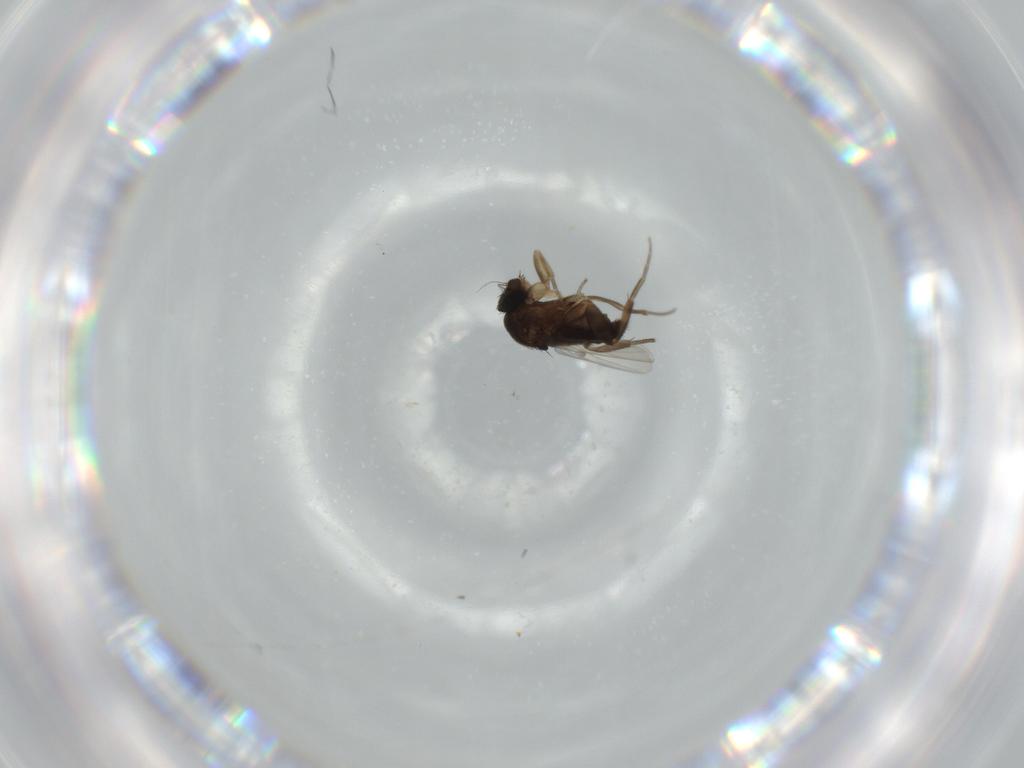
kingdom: Animalia
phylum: Arthropoda
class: Insecta
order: Diptera
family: Phoridae
